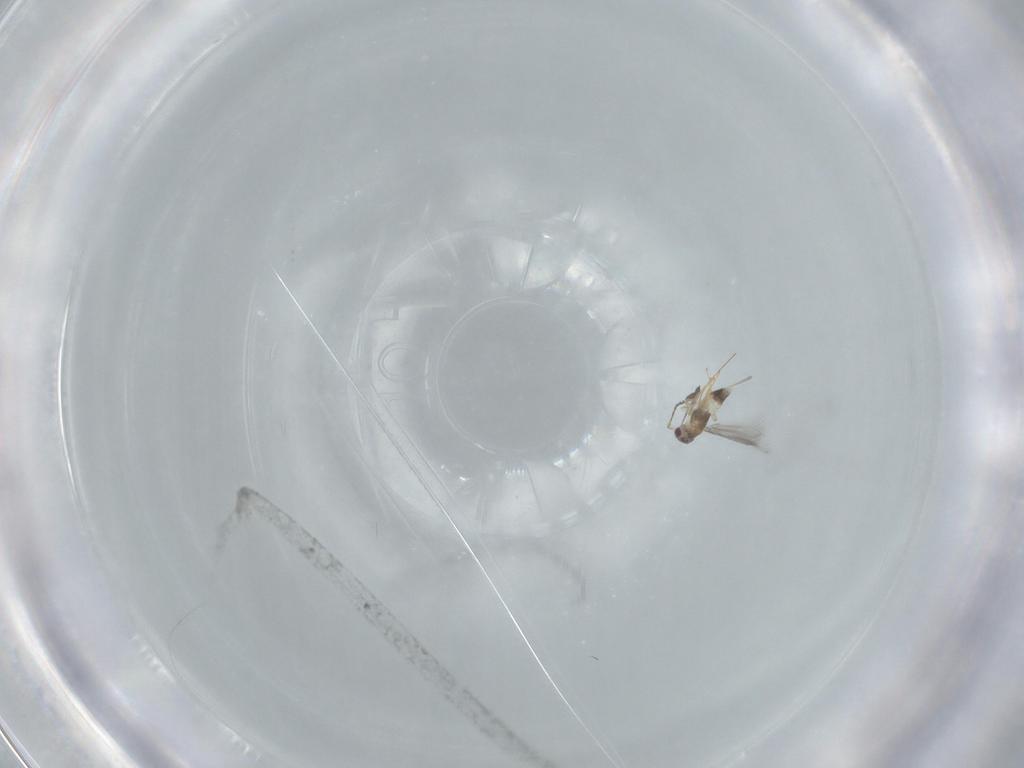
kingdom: Animalia
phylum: Arthropoda
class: Insecta
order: Hymenoptera
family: Mymaridae
